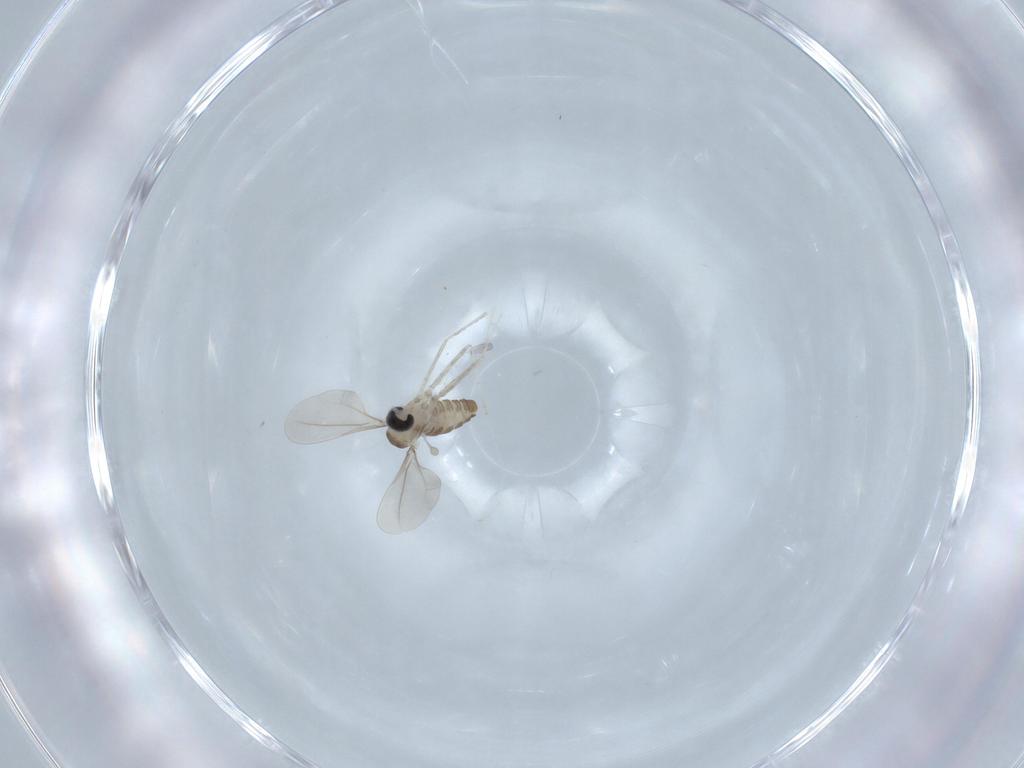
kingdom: Animalia
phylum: Arthropoda
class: Insecta
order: Diptera
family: Cecidomyiidae
